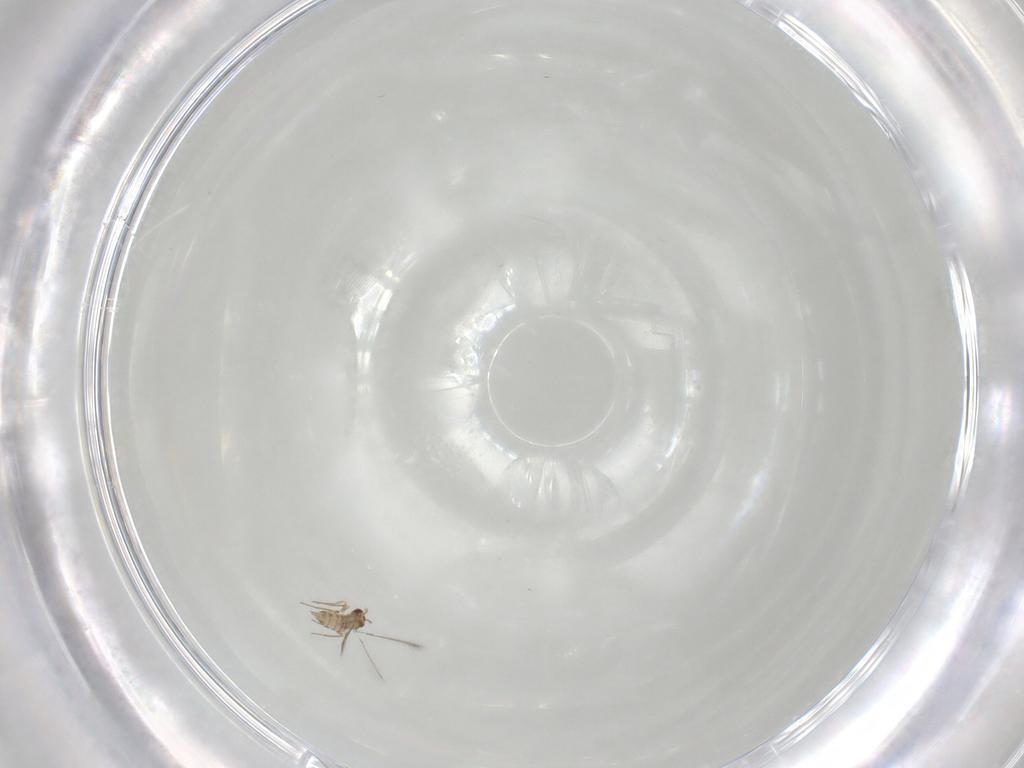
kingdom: Animalia
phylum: Arthropoda
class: Insecta
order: Hymenoptera
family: Mymaridae
